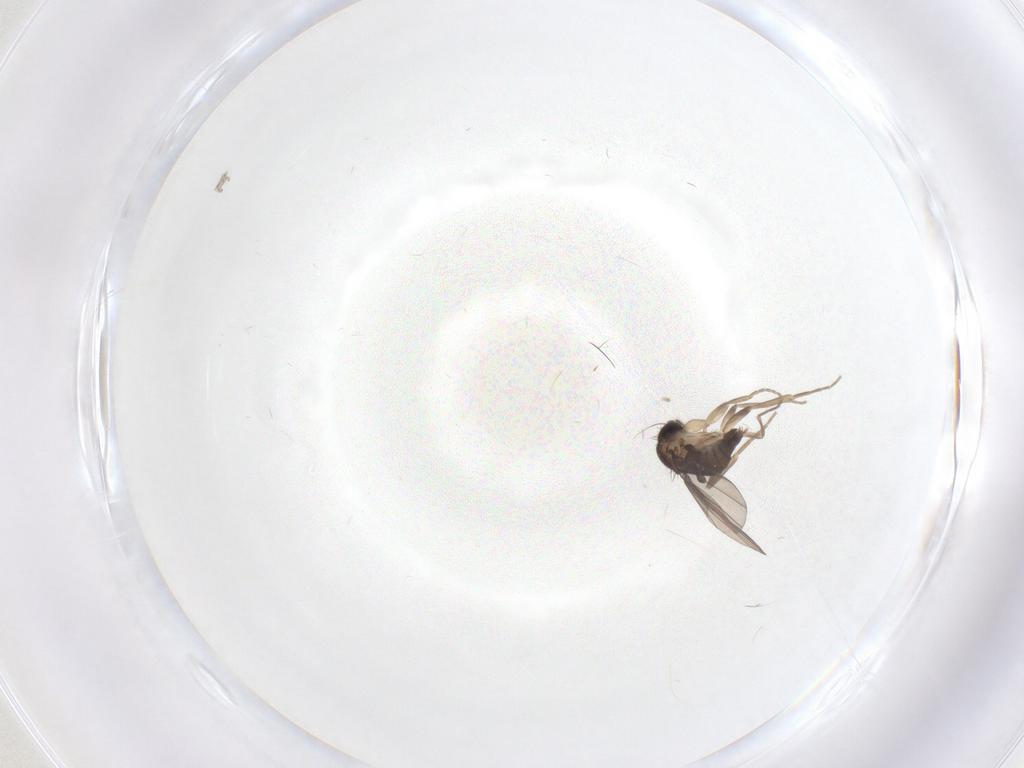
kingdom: Animalia
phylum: Arthropoda
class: Insecta
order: Diptera
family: Phoridae
